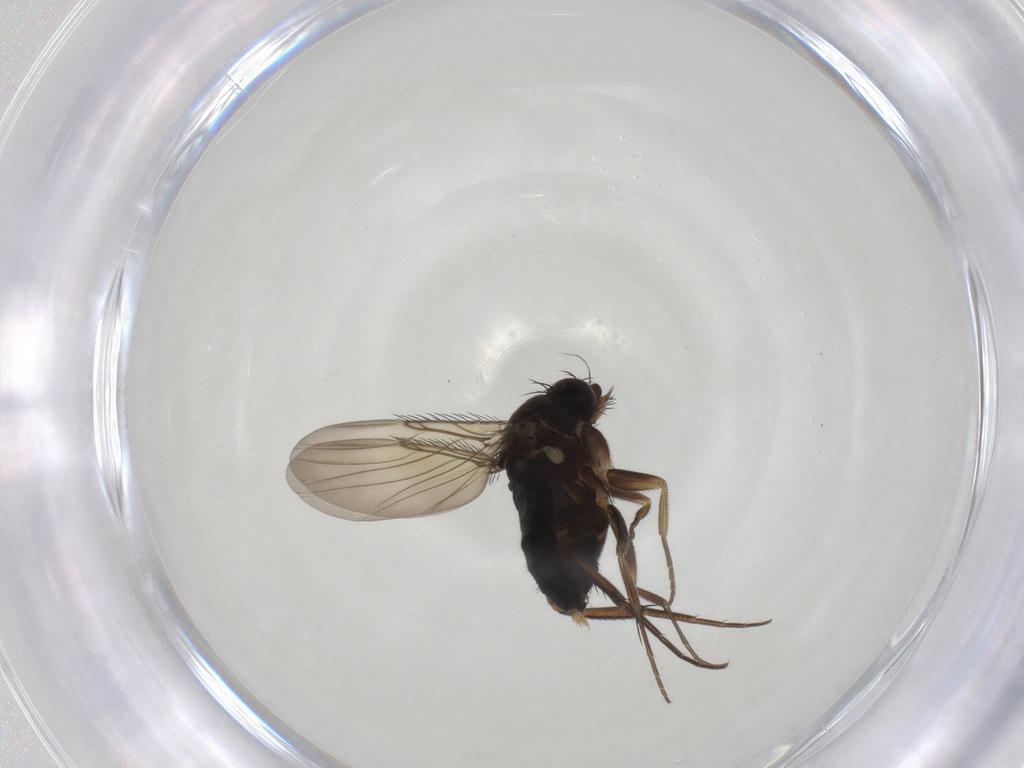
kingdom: Animalia
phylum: Arthropoda
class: Insecta
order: Diptera
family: Phoridae
